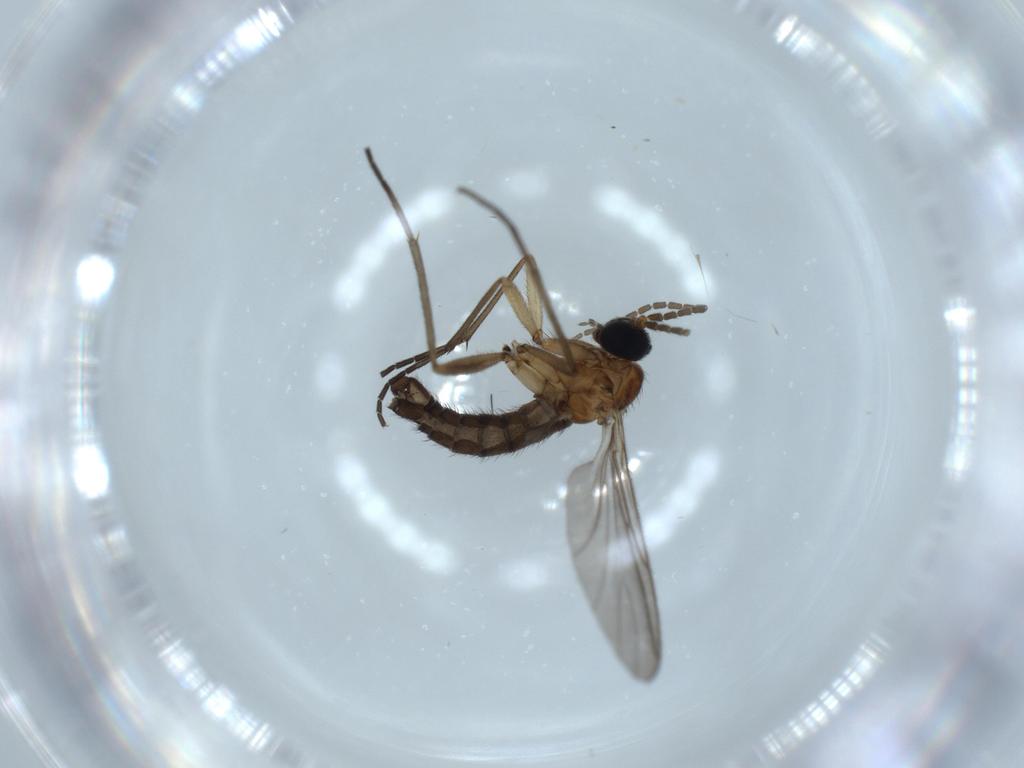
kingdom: Animalia
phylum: Arthropoda
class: Insecta
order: Diptera
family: Sciaridae
